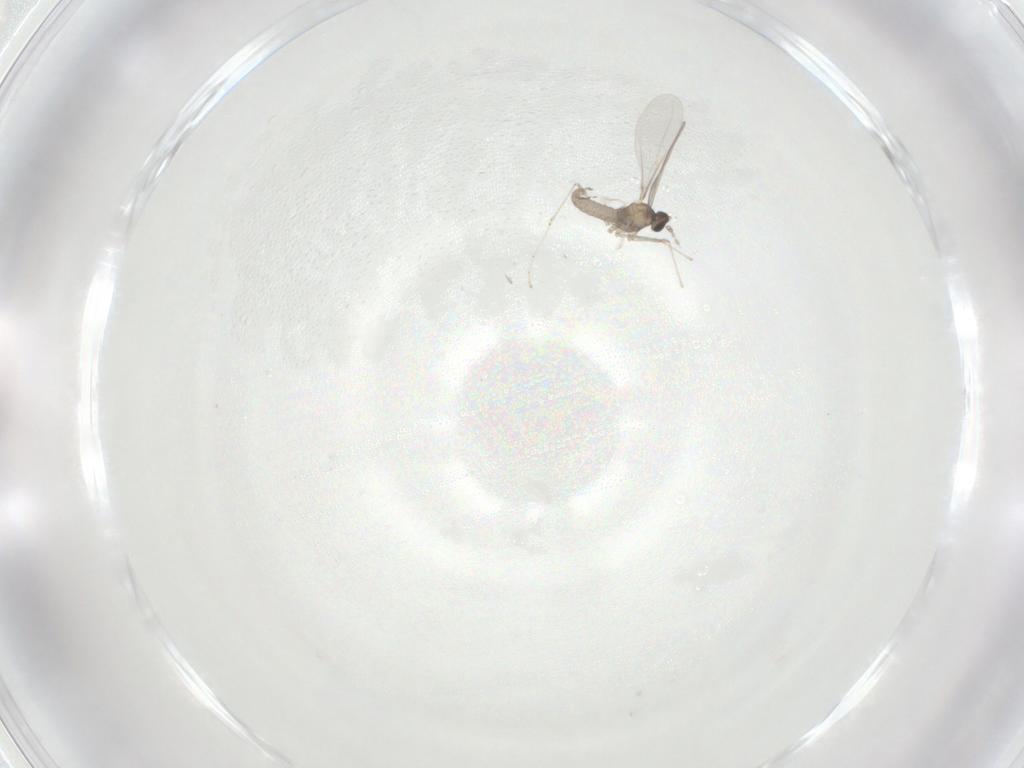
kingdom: Animalia
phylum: Arthropoda
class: Insecta
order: Diptera
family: Cecidomyiidae
